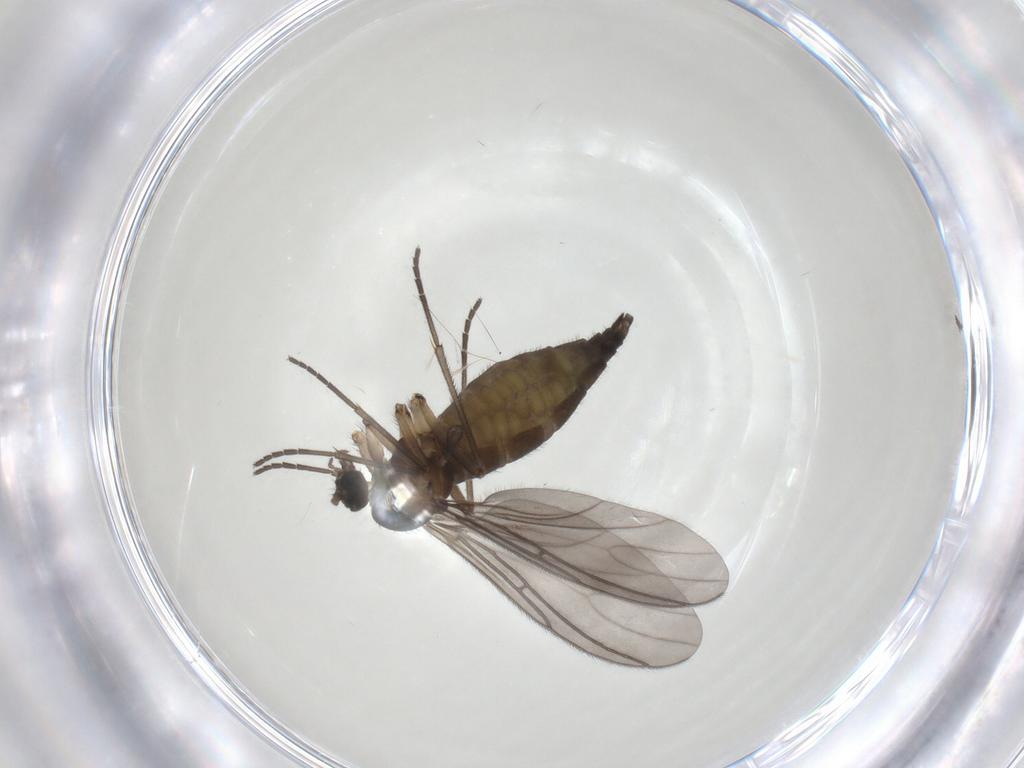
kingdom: Animalia
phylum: Arthropoda
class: Insecta
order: Diptera
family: Sciaridae
